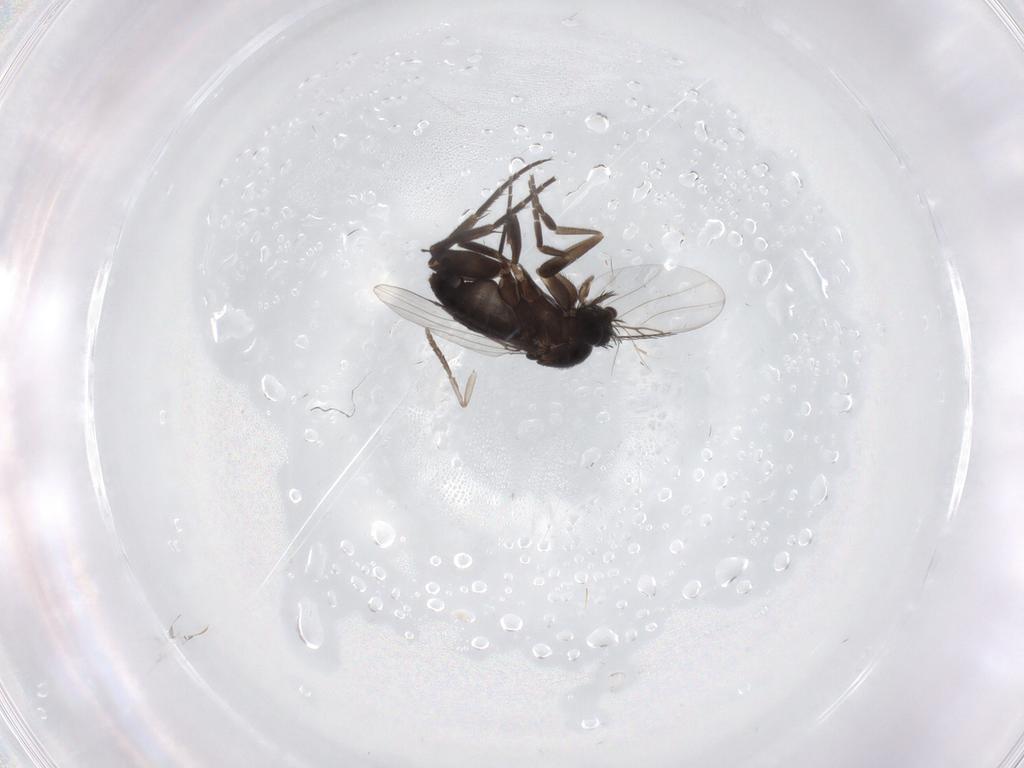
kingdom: Animalia
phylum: Arthropoda
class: Insecta
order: Diptera
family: Phoridae
